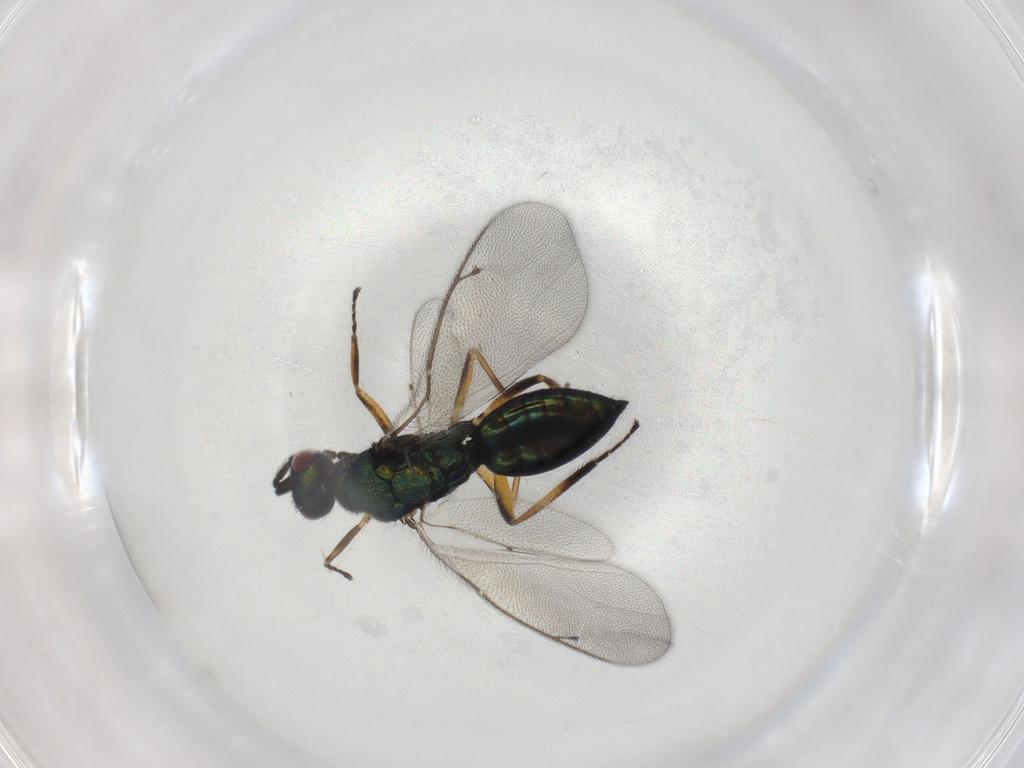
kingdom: Animalia
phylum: Arthropoda
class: Insecta
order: Hymenoptera
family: Eulophidae
